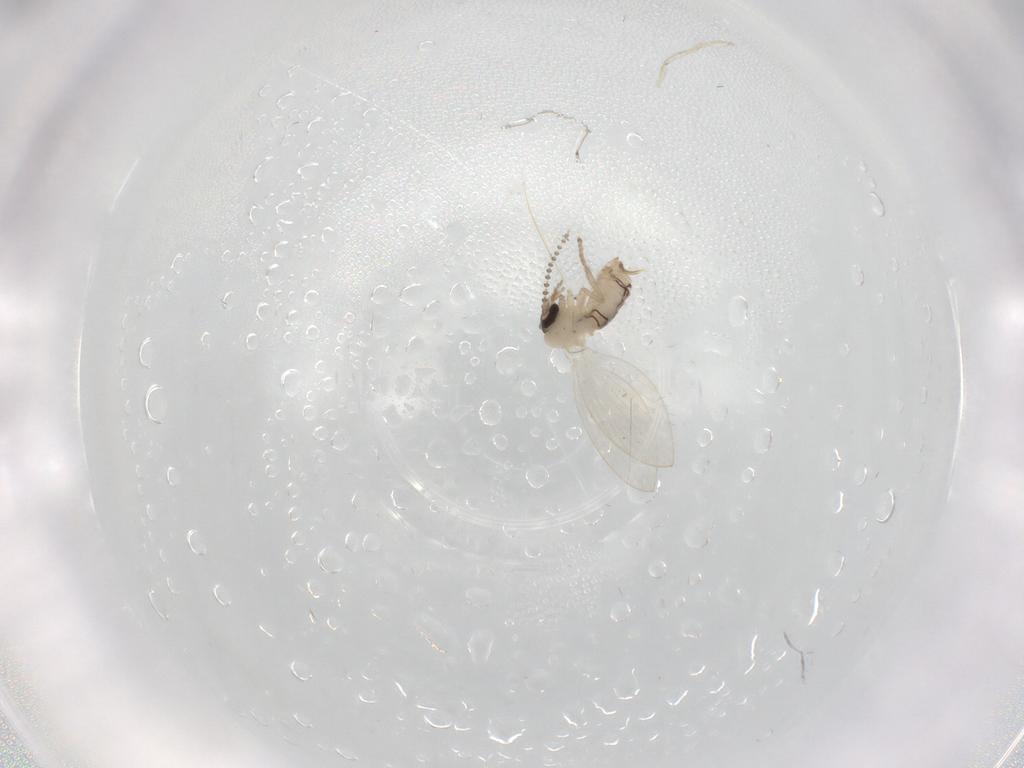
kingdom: Animalia
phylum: Arthropoda
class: Insecta
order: Diptera
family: Psychodidae
